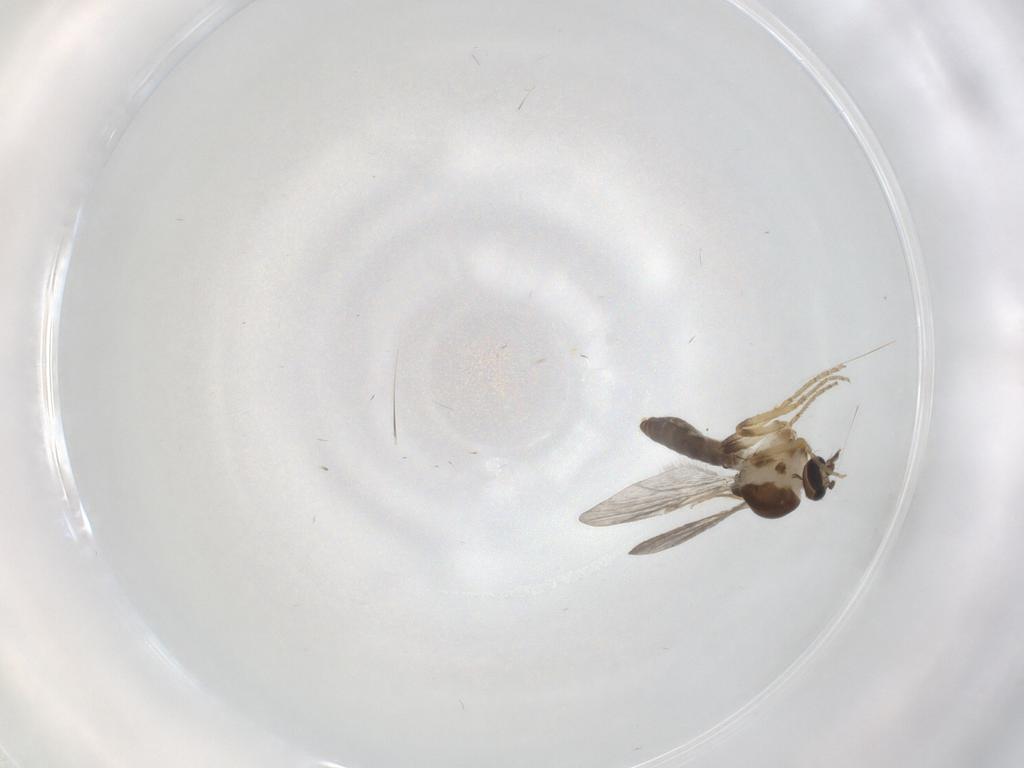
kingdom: Animalia
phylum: Arthropoda
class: Insecta
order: Diptera
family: Ceratopogonidae
